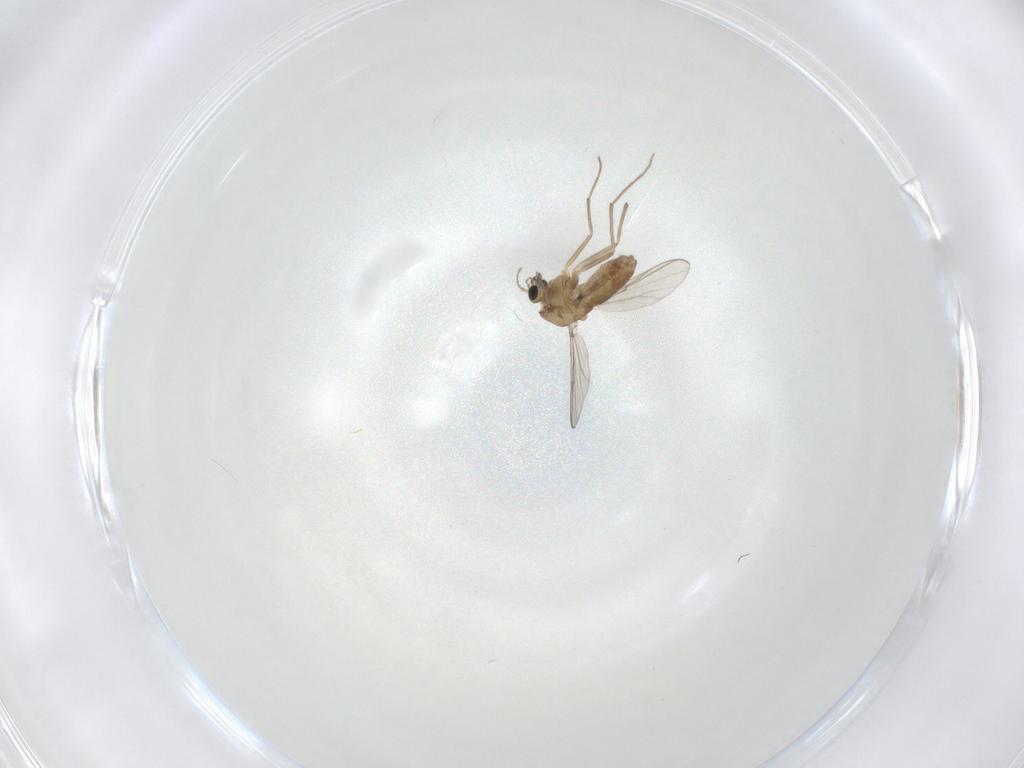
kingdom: Animalia
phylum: Arthropoda
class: Insecta
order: Diptera
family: Chironomidae
